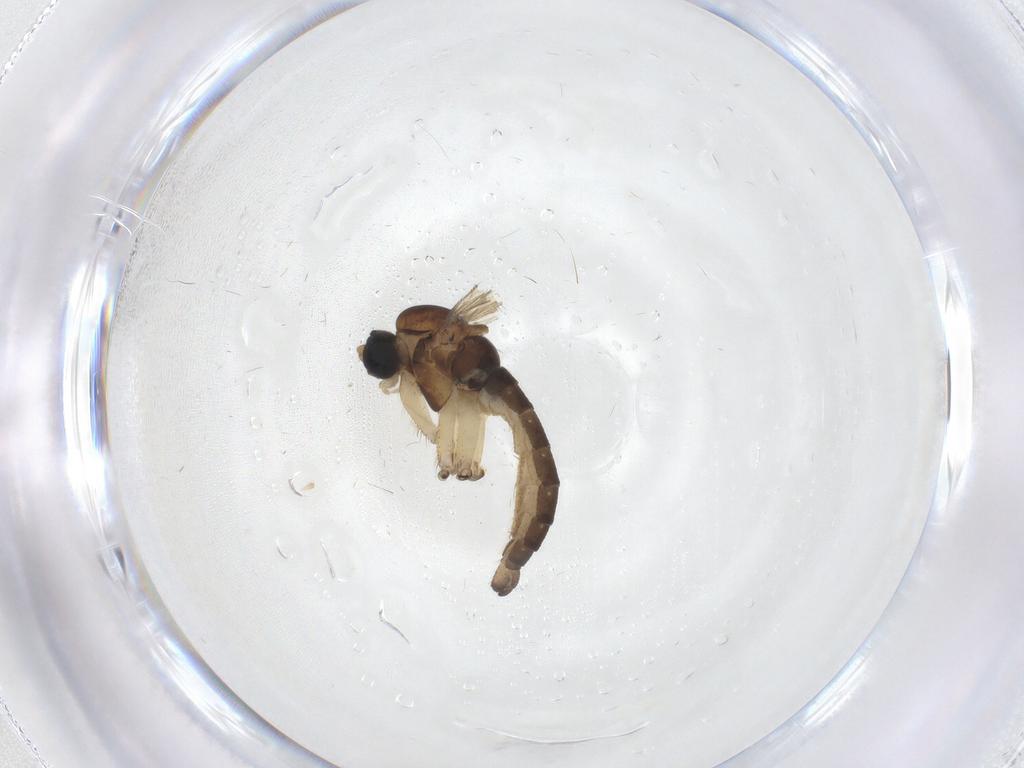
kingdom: Animalia
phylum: Arthropoda
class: Insecta
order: Diptera
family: Sciaridae
